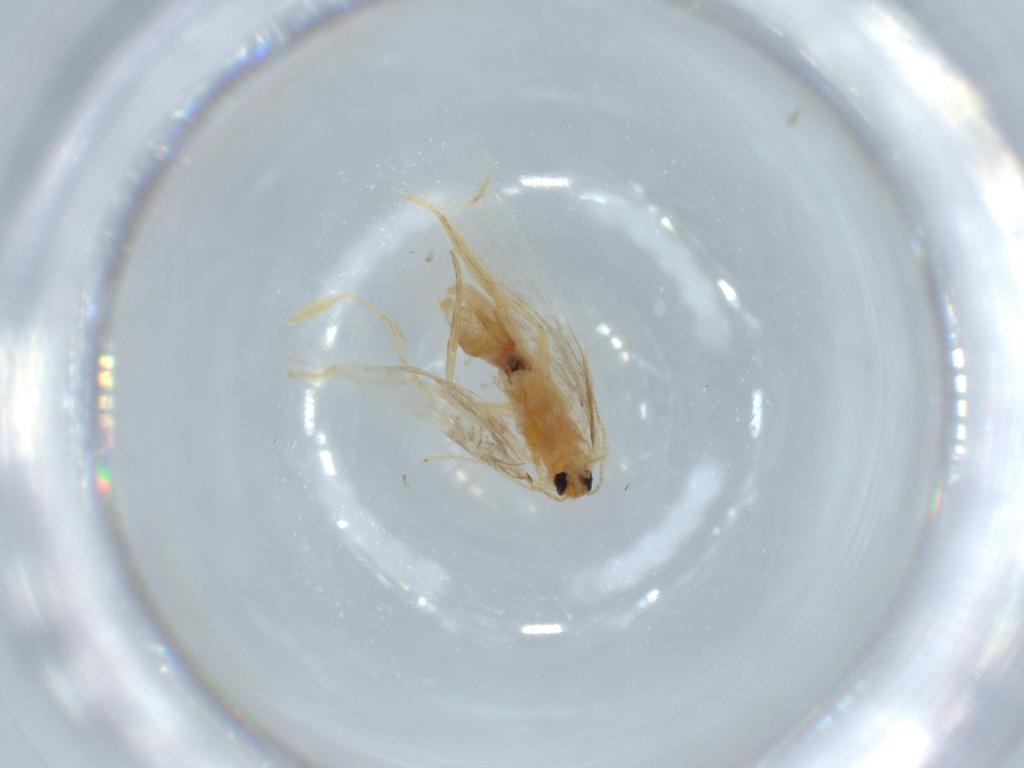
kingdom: Animalia
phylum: Arthropoda
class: Insecta
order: Lepidoptera
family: Dryadaulidae
